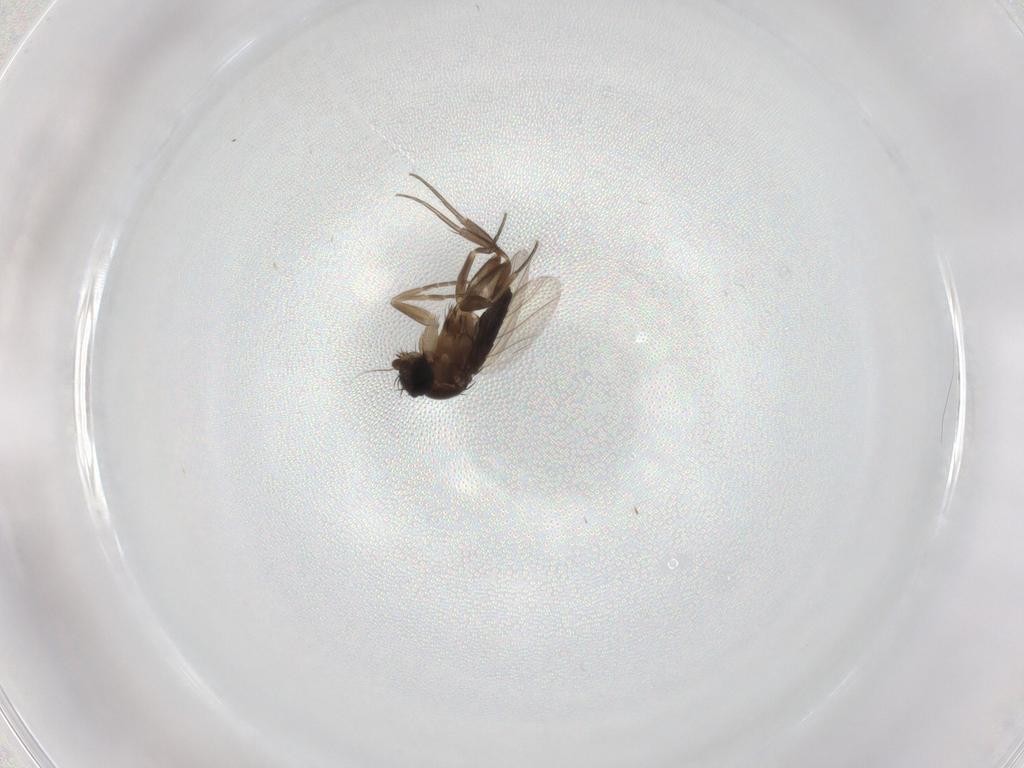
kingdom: Animalia
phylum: Arthropoda
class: Insecta
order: Diptera
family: Phoridae
